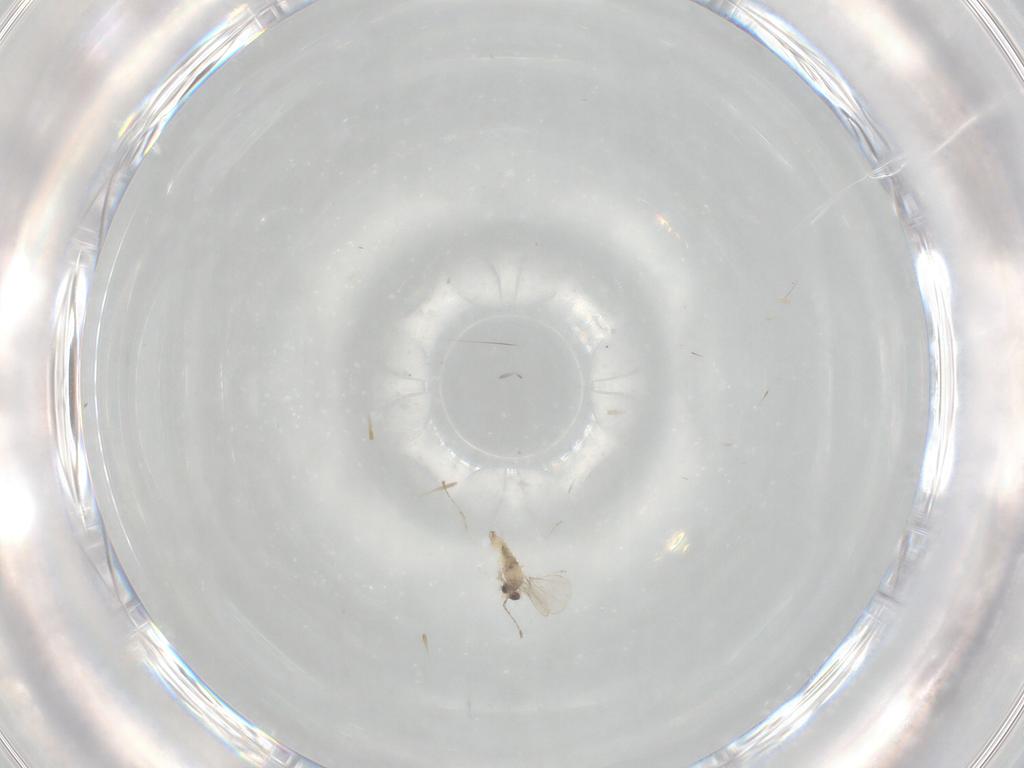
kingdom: Animalia
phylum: Arthropoda
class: Insecta
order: Diptera
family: Cecidomyiidae
